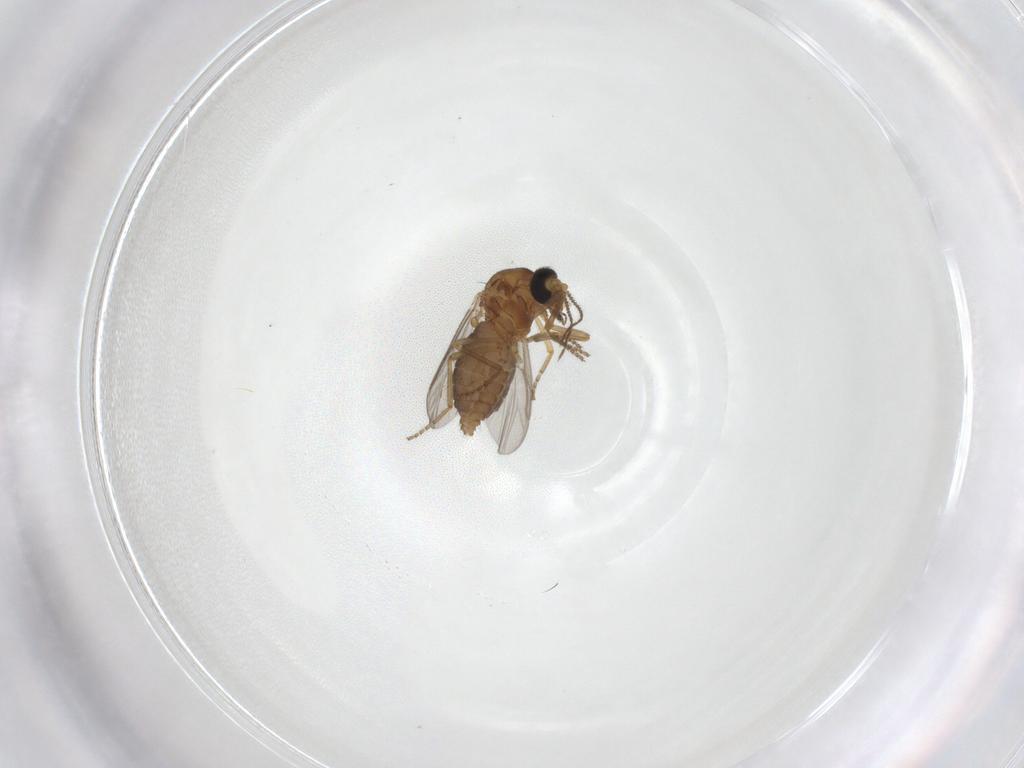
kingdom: Animalia
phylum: Arthropoda
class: Insecta
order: Diptera
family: Ceratopogonidae
